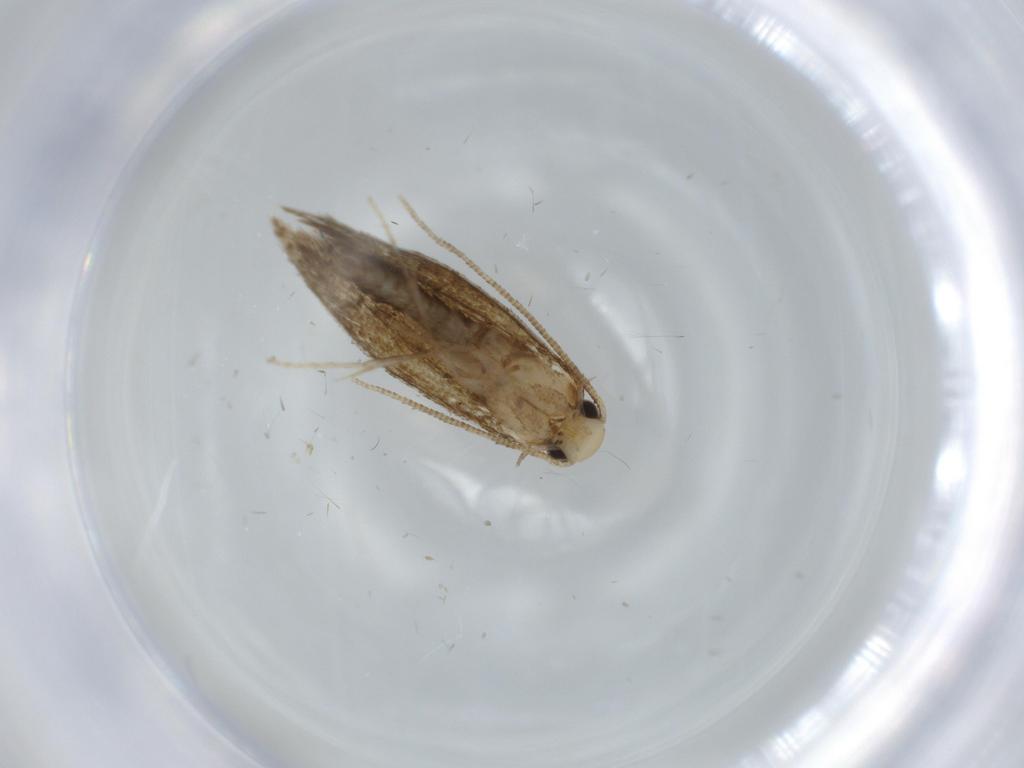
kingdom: Animalia
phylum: Arthropoda
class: Insecta
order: Lepidoptera
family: Tineidae
